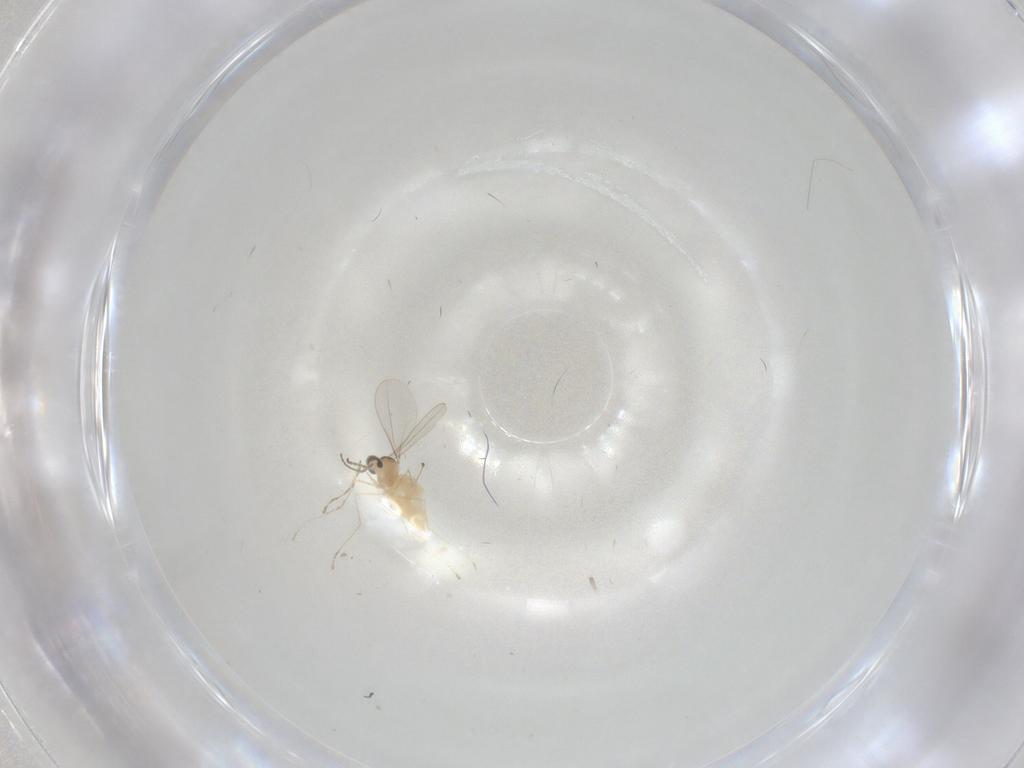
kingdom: Animalia
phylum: Arthropoda
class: Insecta
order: Diptera
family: Cecidomyiidae
